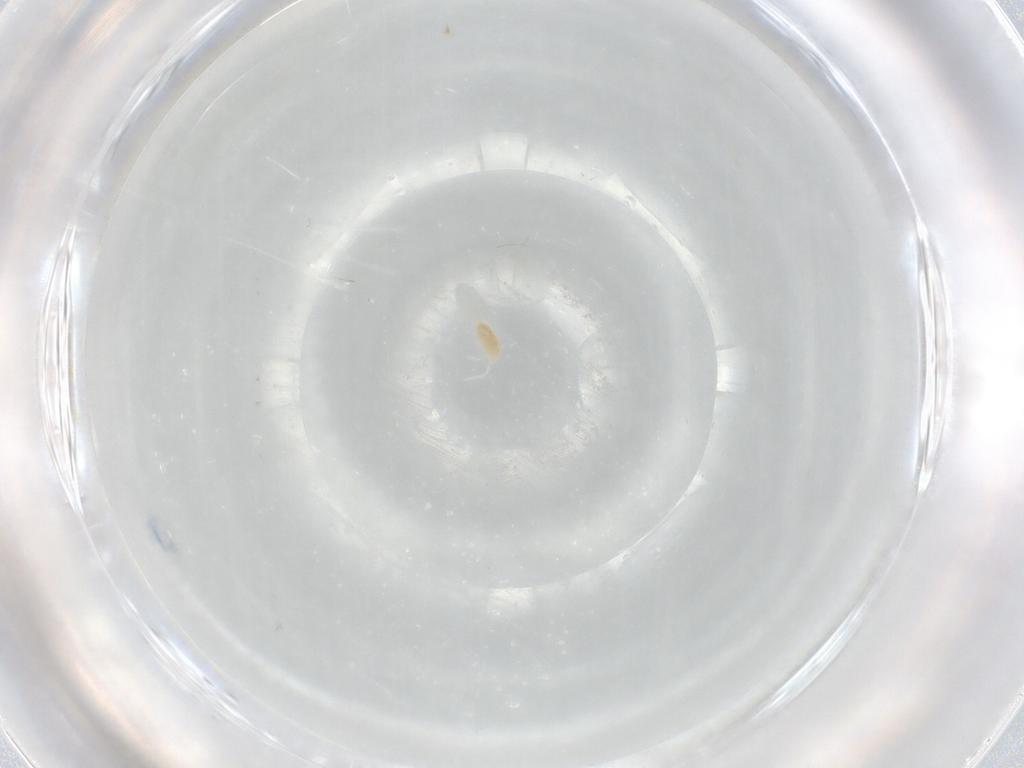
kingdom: Animalia
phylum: Arthropoda
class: Arachnida
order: Trombidiformes
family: Eupodidae
